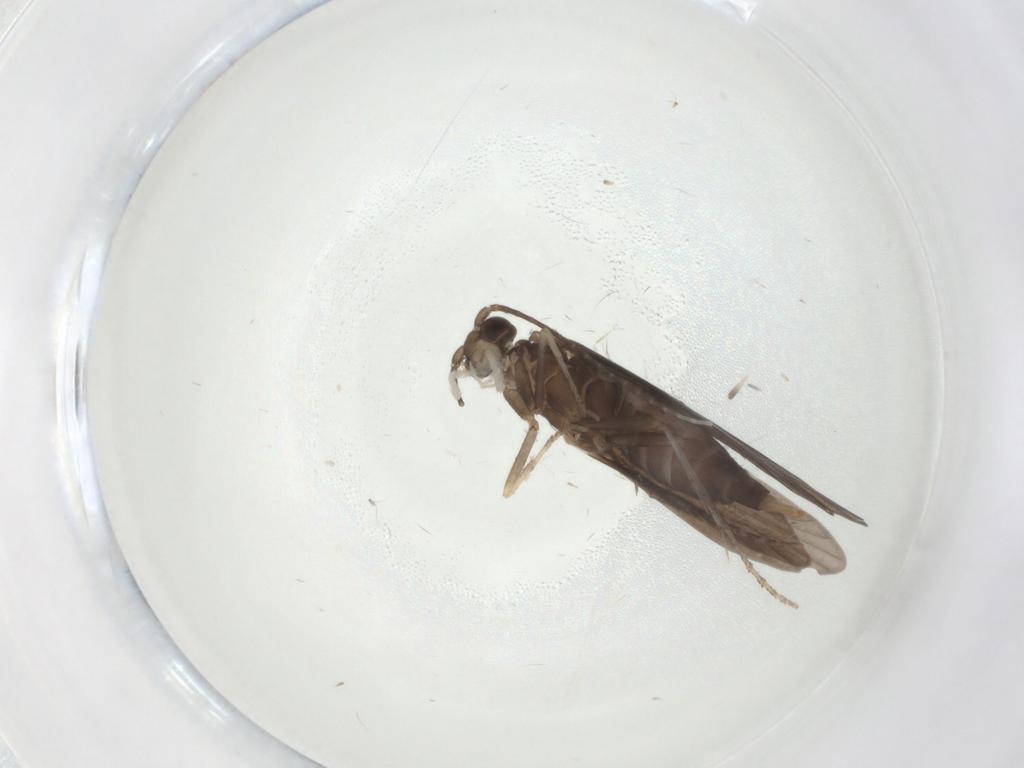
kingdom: Animalia
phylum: Arthropoda
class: Insecta
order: Trichoptera
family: Xiphocentronidae
